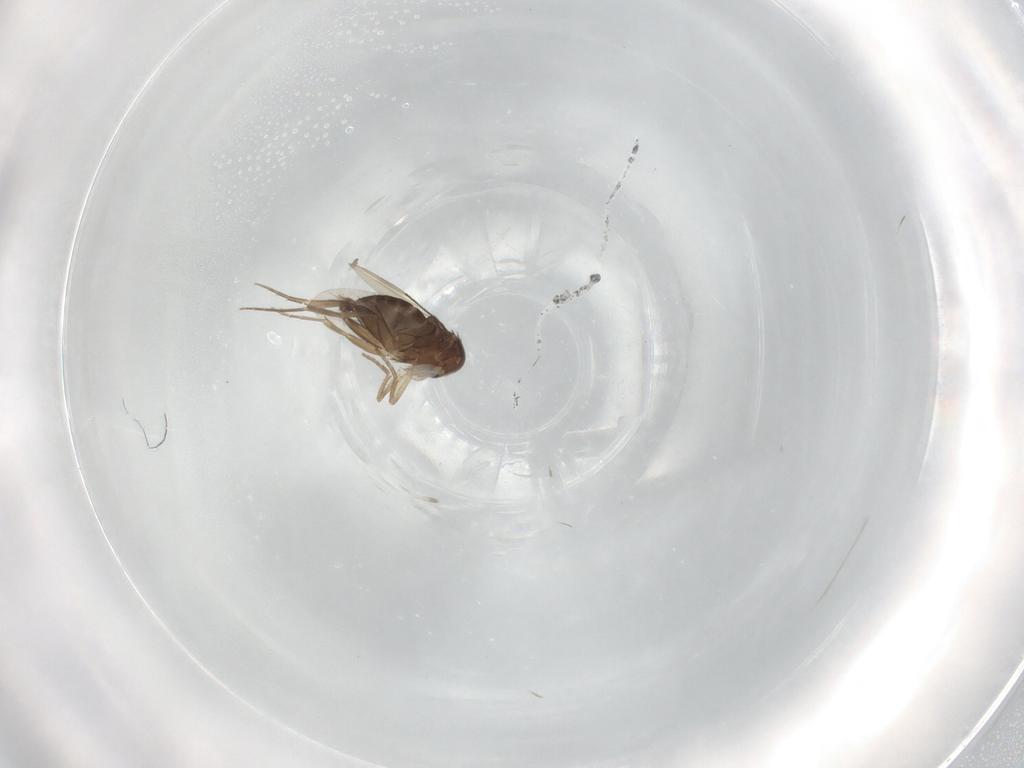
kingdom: Animalia
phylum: Arthropoda
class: Insecta
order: Diptera
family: Phoridae
